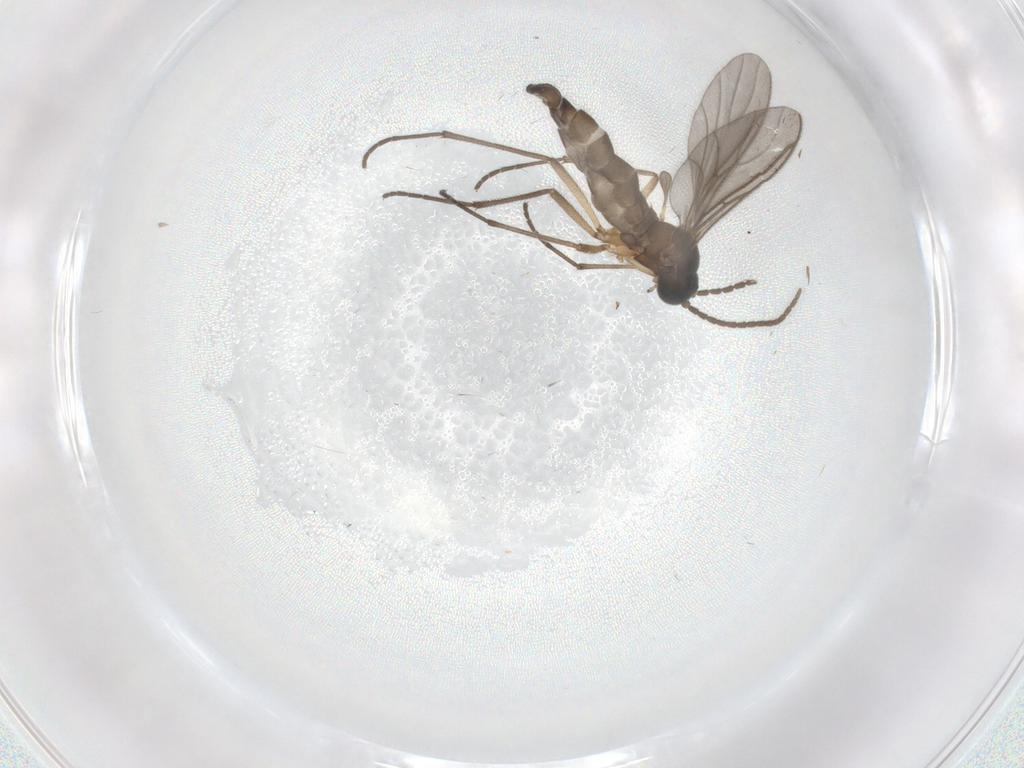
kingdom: Animalia
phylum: Arthropoda
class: Insecta
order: Diptera
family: Sciaridae
